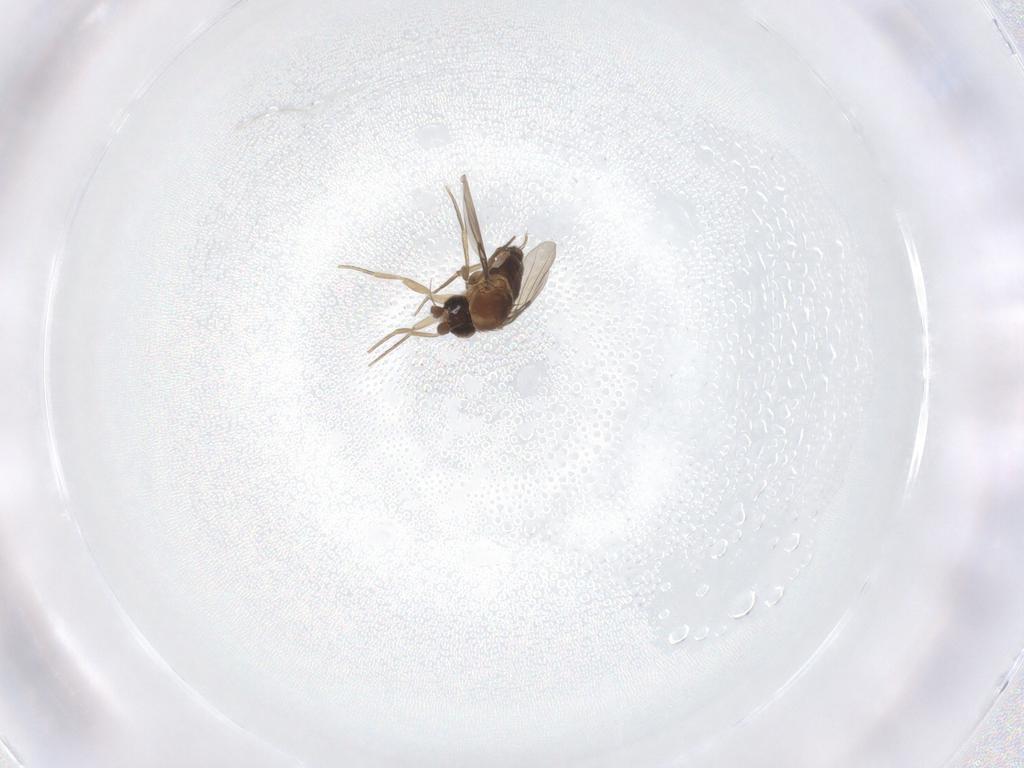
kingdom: Animalia
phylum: Arthropoda
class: Insecta
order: Diptera
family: Phoridae
